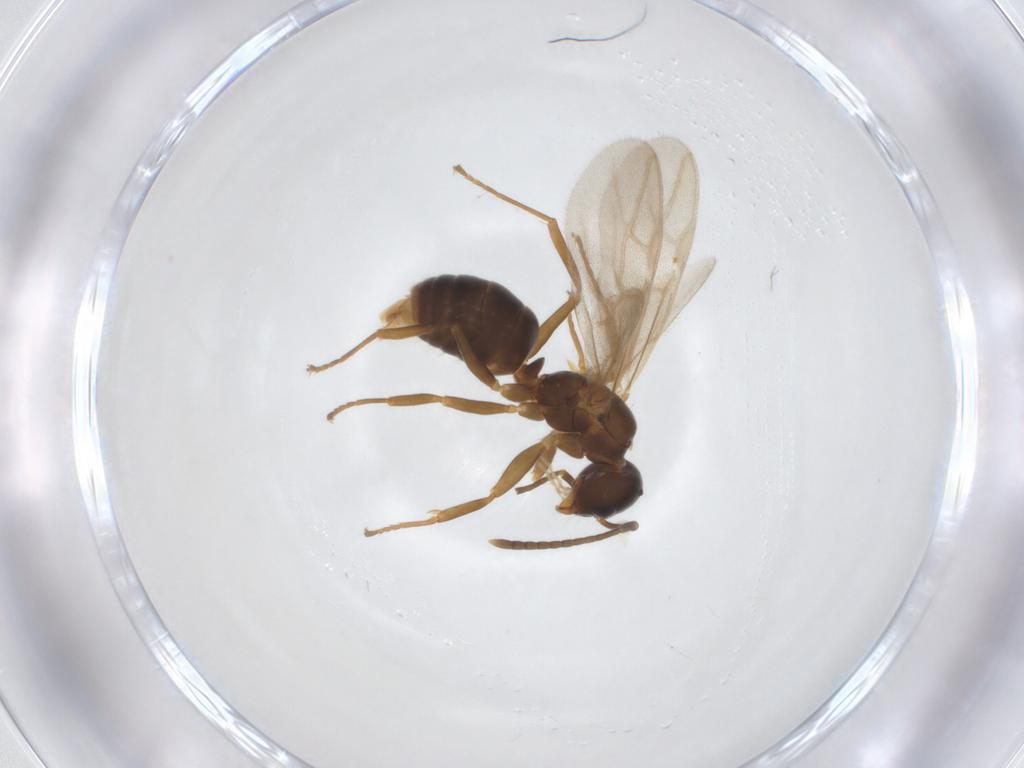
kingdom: Animalia
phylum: Arthropoda
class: Insecta
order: Hymenoptera
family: Formicidae
